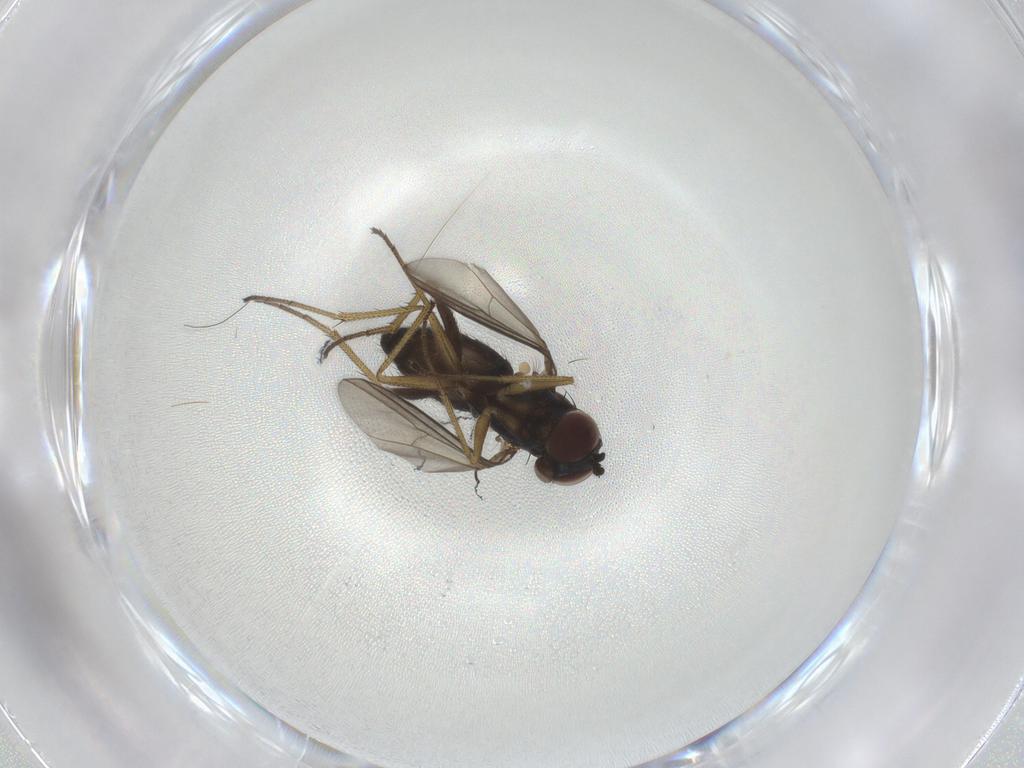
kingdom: Animalia
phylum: Arthropoda
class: Insecta
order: Diptera
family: Dolichopodidae
